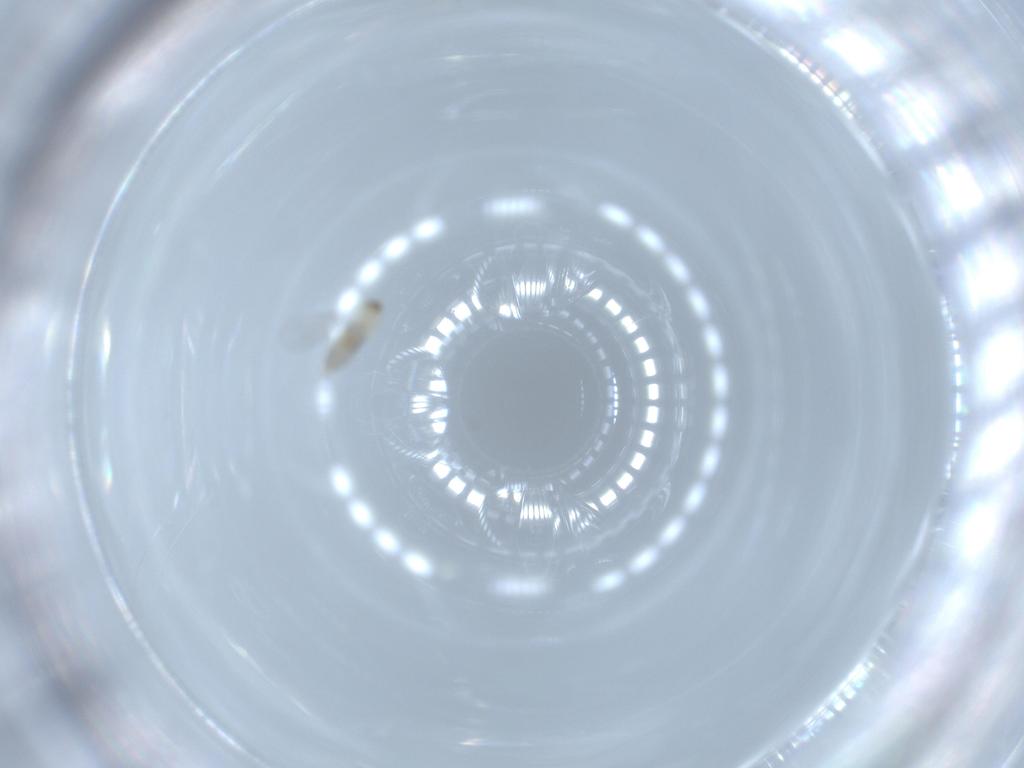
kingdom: Animalia
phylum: Arthropoda
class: Insecta
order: Diptera
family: Cecidomyiidae
